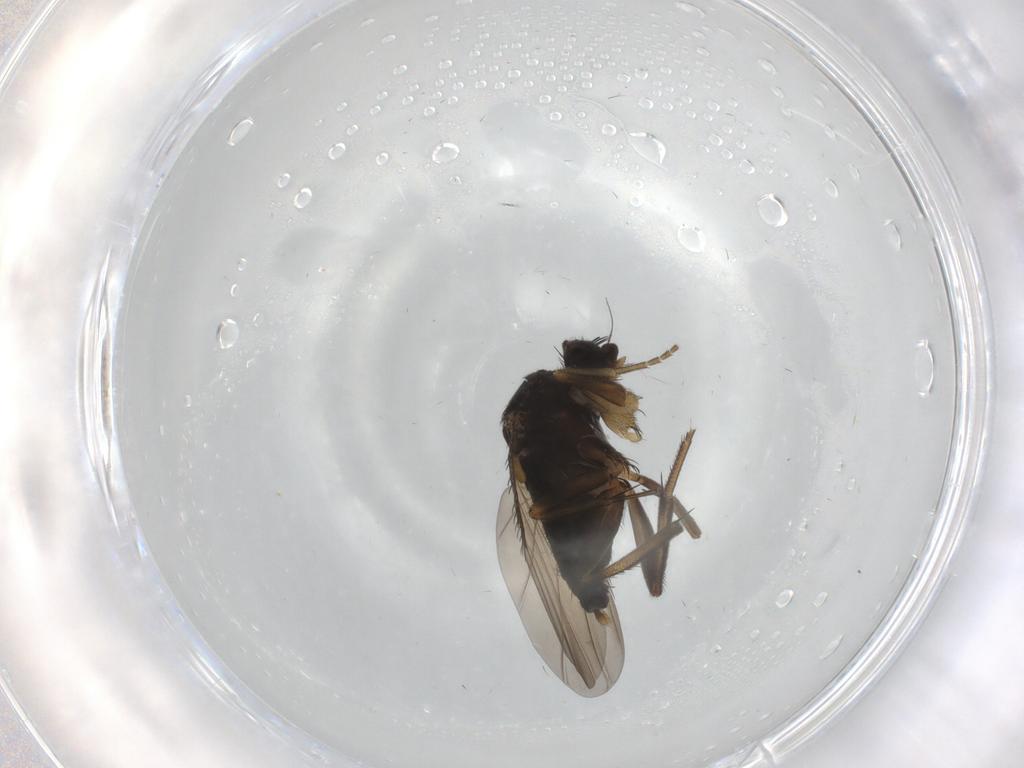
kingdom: Animalia
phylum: Arthropoda
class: Insecta
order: Diptera
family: Phoridae
